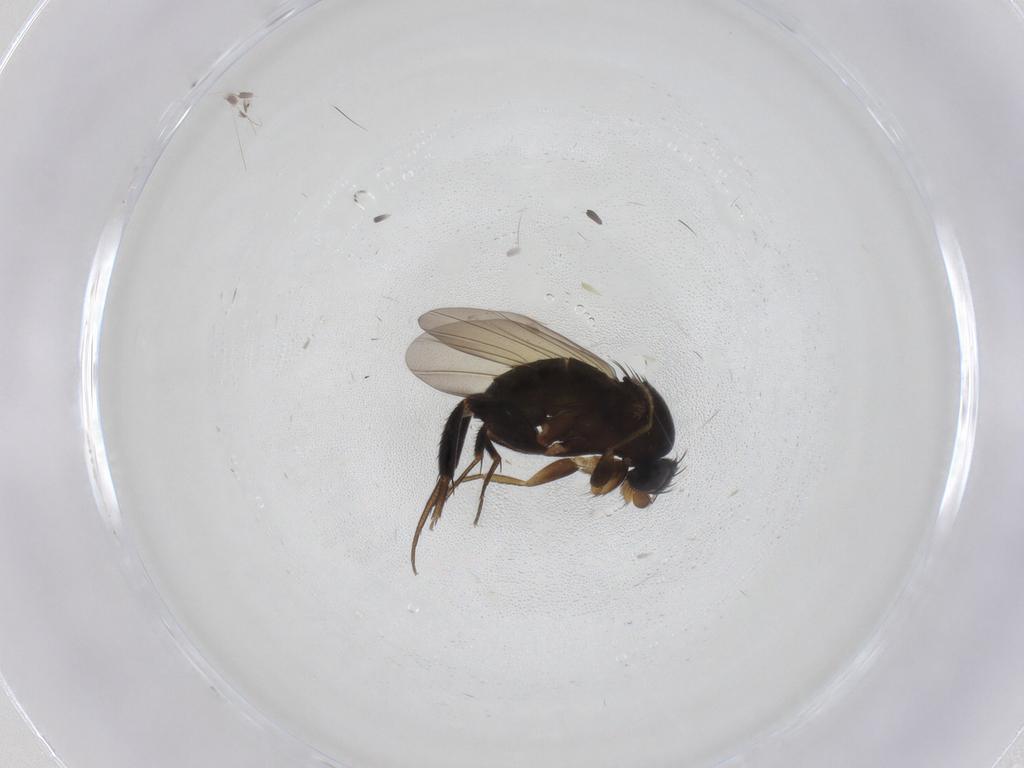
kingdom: Animalia
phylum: Arthropoda
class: Insecta
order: Diptera
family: Phoridae
